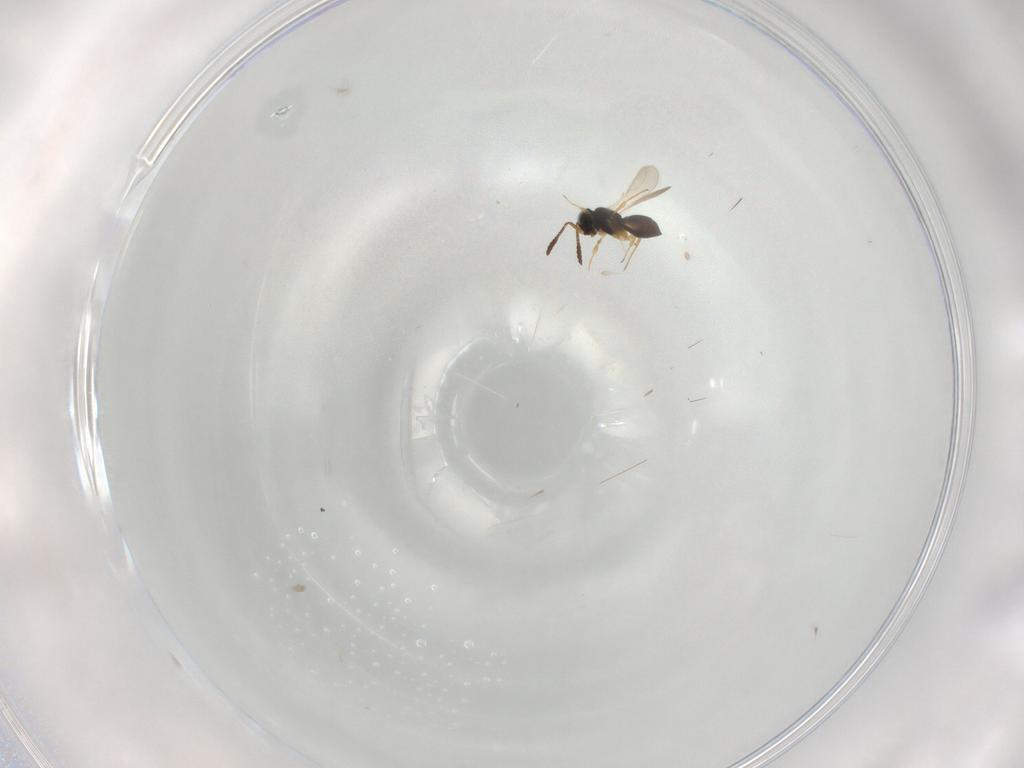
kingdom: Animalia
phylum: Arthropoda
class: Insecta
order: Hymenoptera
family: Scelionidae
